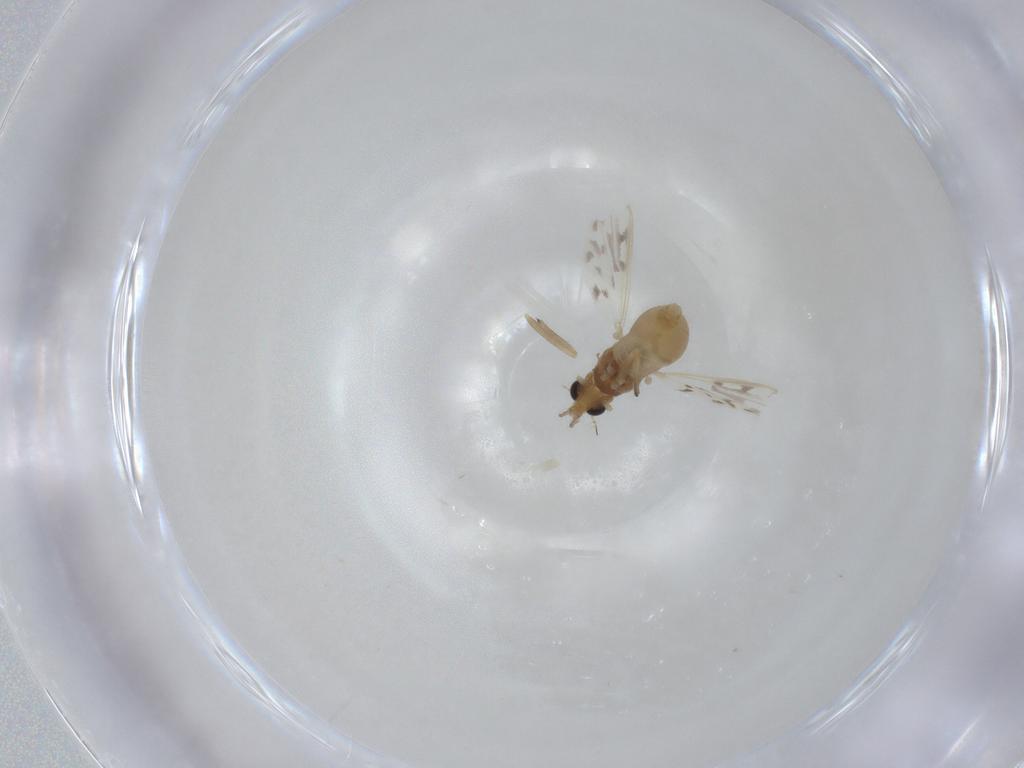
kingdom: Animalia
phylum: Arthropoda
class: Insecta
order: Diptera
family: Chironomidae
